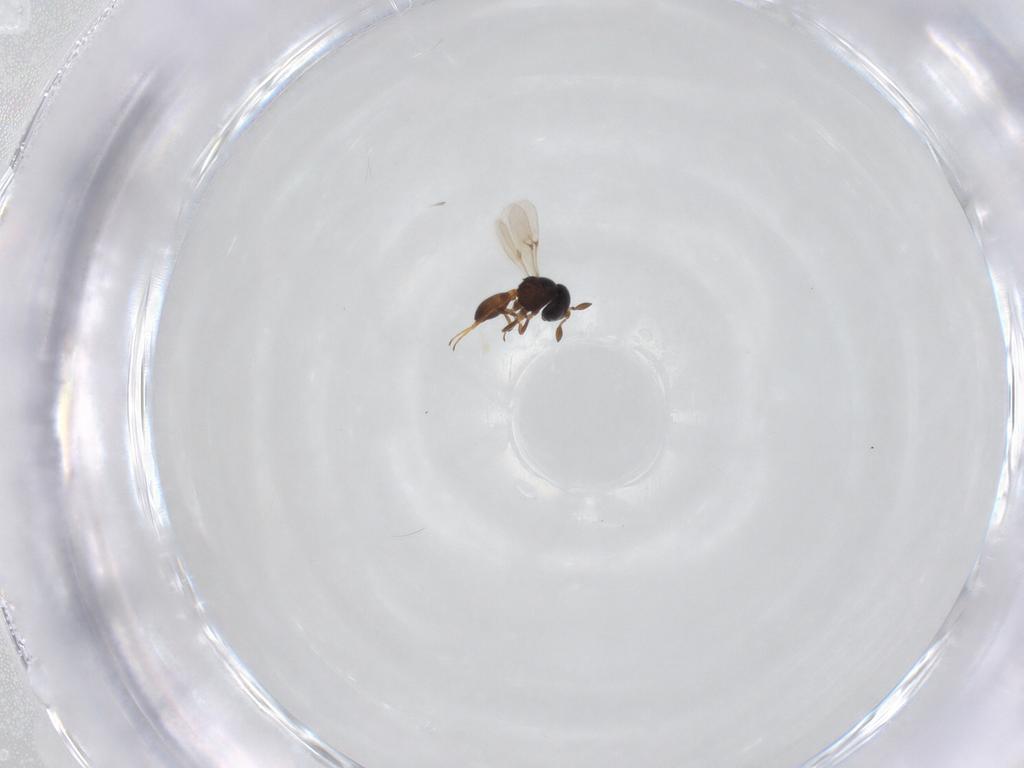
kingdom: Animalia
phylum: Arthropoda
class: Insecta
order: Hymenoptera
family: Scelionidae
